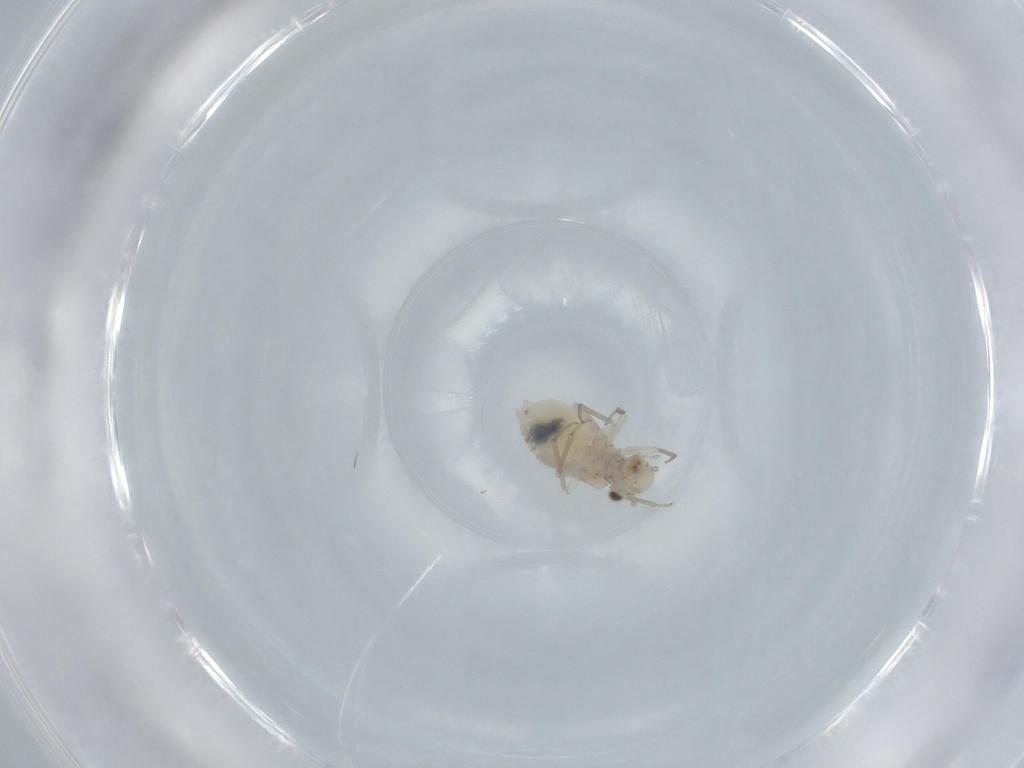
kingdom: Animalia
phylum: Arthropoda
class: Insecta
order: Psocodea
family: Lachesillidae
